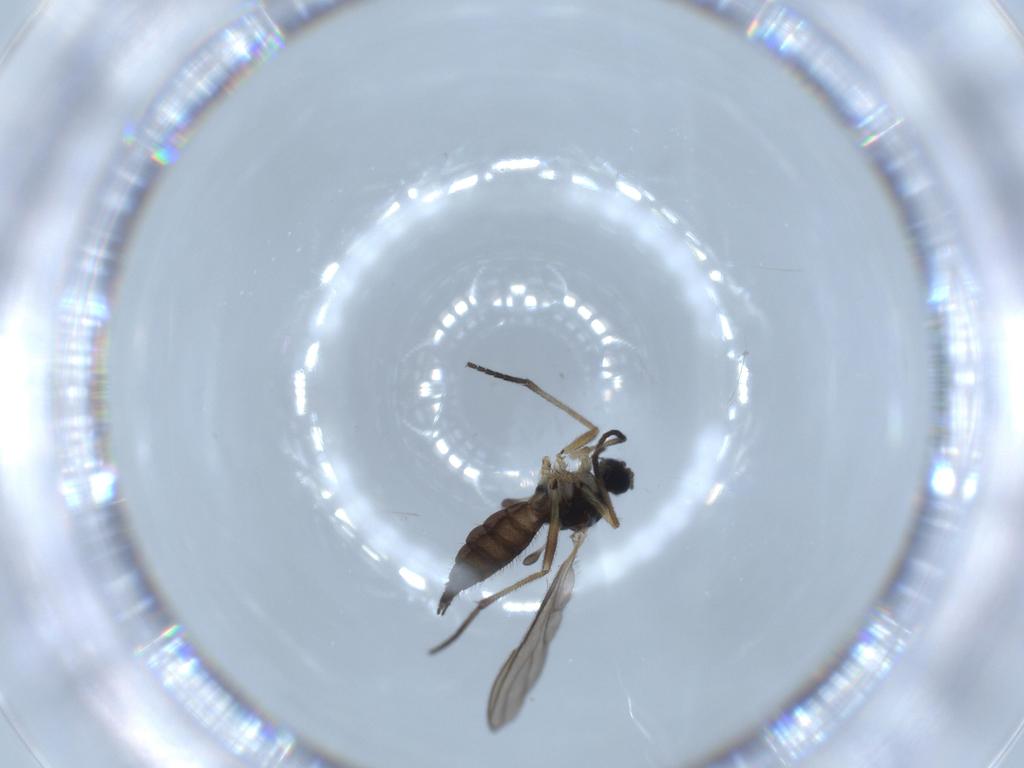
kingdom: Animalia
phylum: Arthropoda
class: Insecta
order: Diptera
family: Sciaridae
